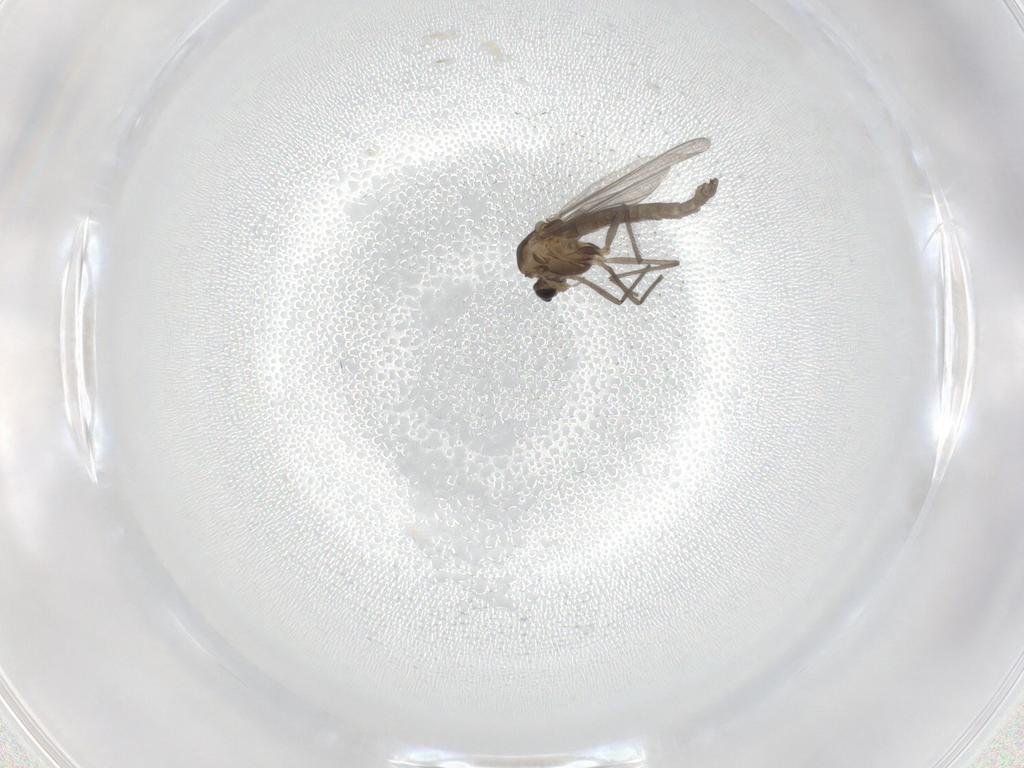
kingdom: Animalia
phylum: Arthropoda
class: Insecta
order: Diptera
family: Chironomidae
